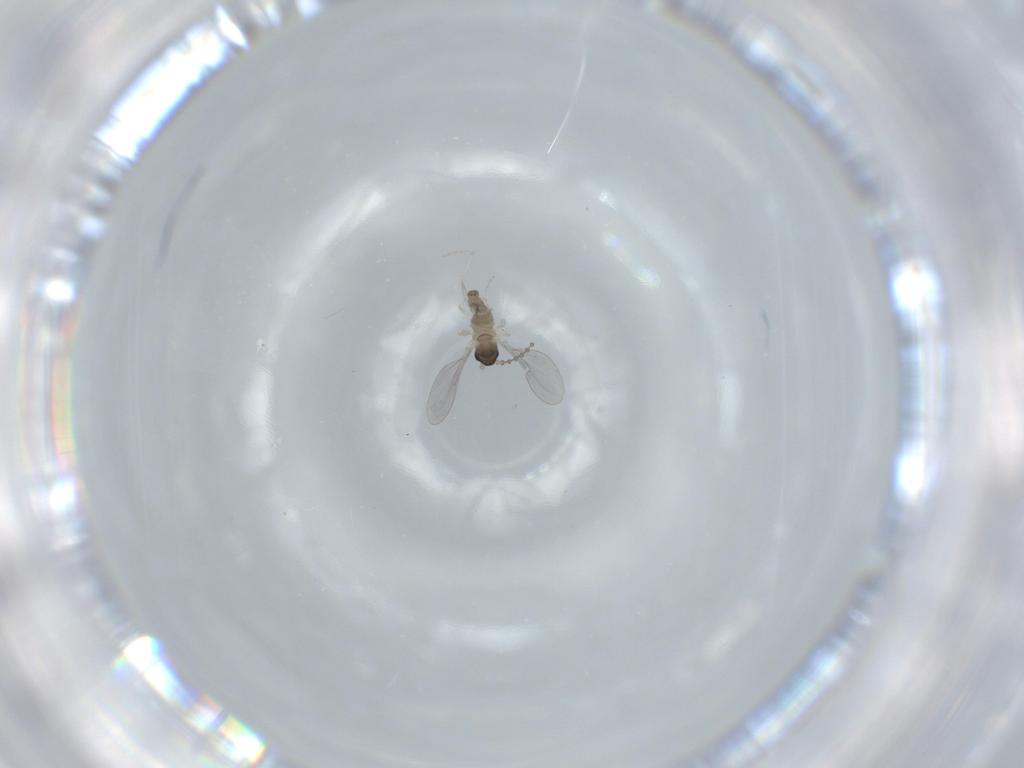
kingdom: Animalia
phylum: Arthropoda
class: Insecta
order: Diptera
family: Cecidomyiidae
